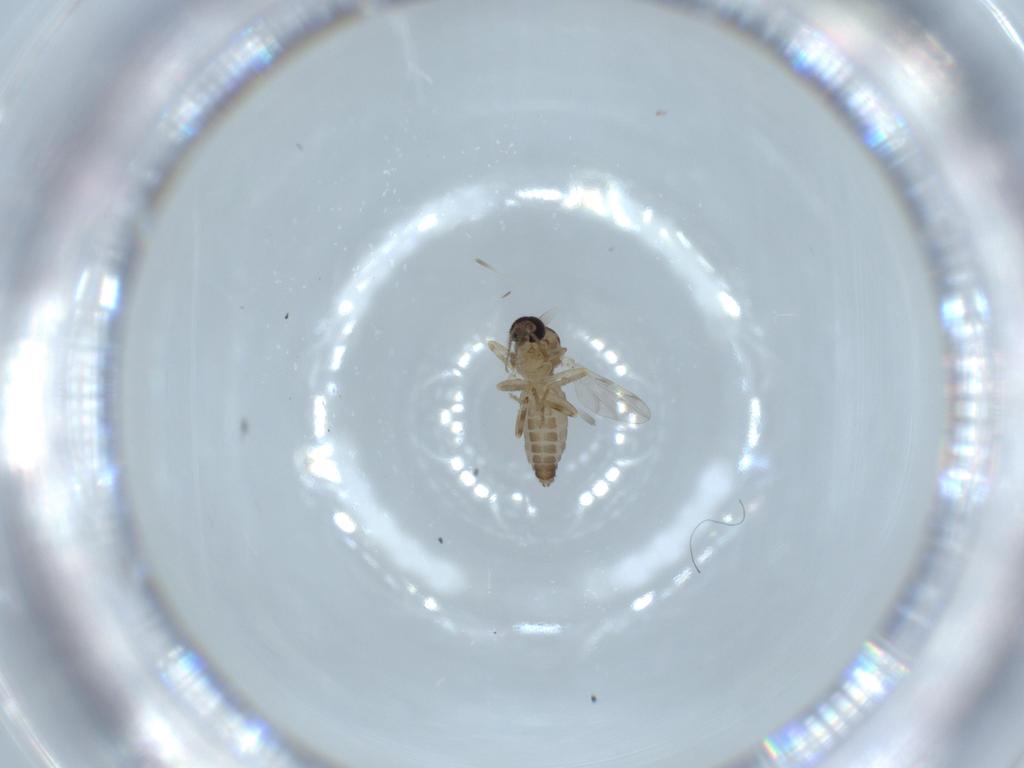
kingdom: Animalia
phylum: Arthropoda
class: Insecta
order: Diptera
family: Ceratopogonidae
